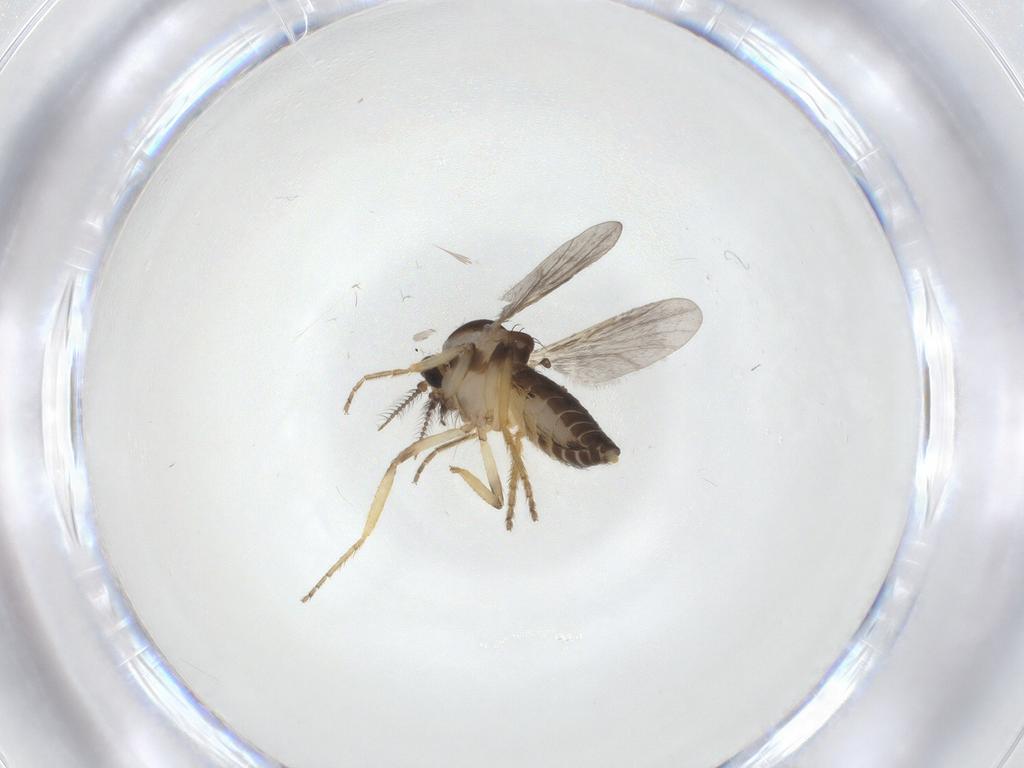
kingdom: Animalia
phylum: Arthropoda
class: Insecta
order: Diptera
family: Ceratopogonidae
